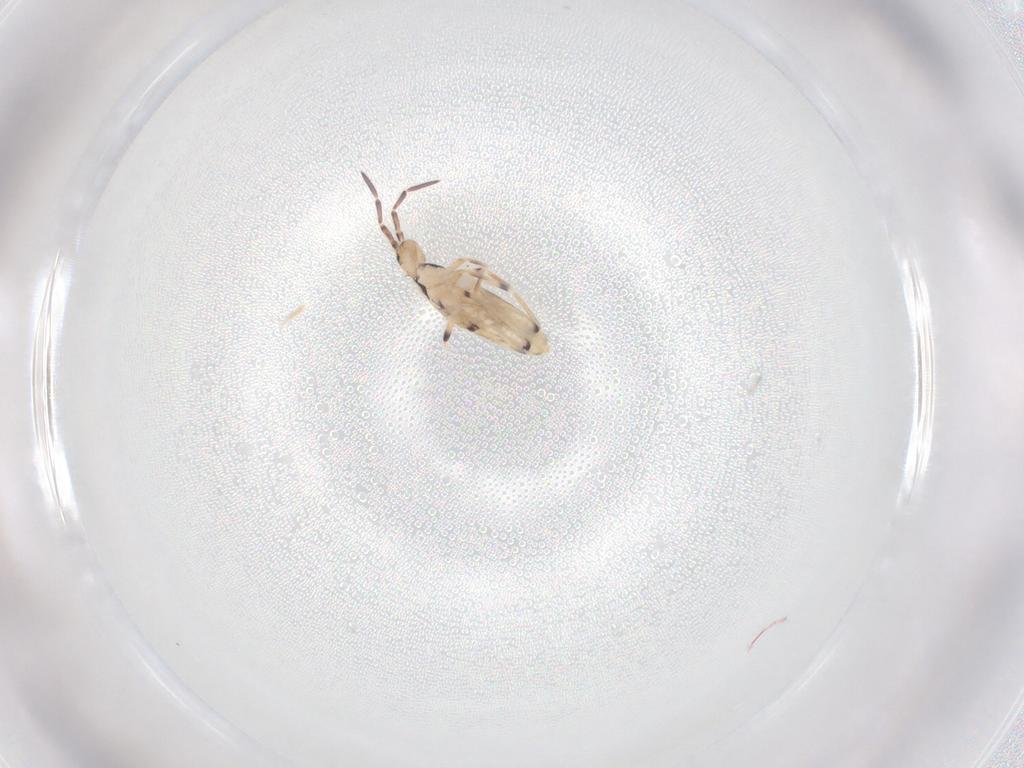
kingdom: Animalia
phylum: Arthropoda
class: Collembola
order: Entomobryomorpha
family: Entomobryidae
